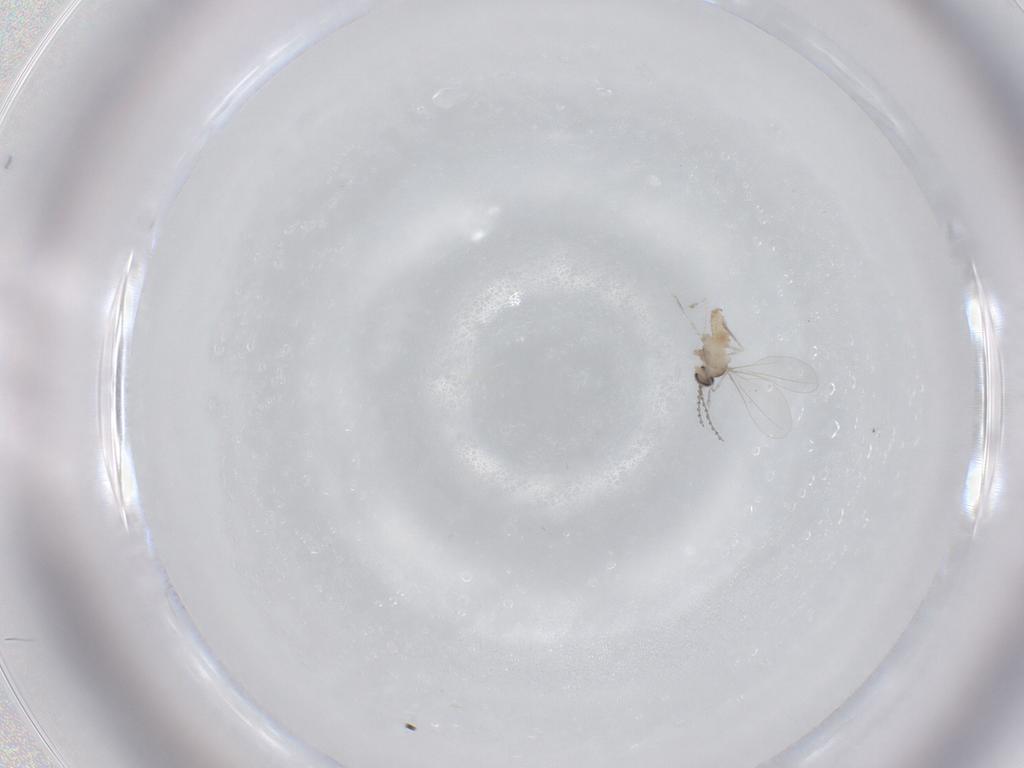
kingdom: Animalia
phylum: Arthropoda
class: Insecta
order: Diptera
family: Cecidomyiidae
